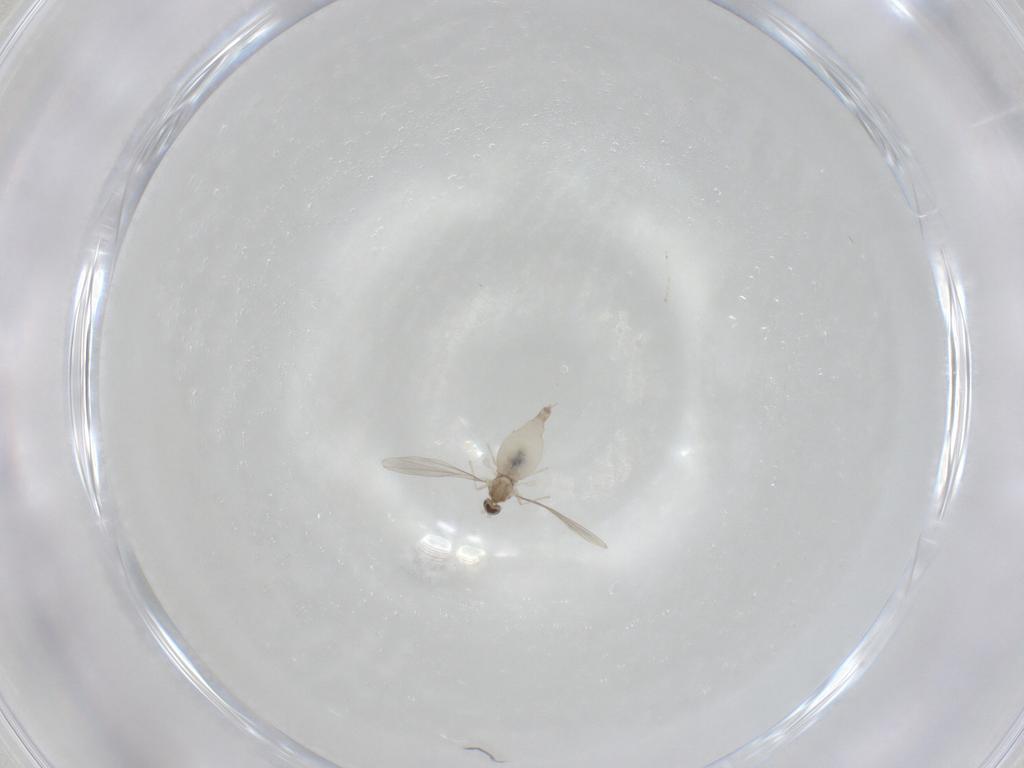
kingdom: Animalia
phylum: Arthropoda
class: Insecta
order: Diptera
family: Cecidomyiidae
